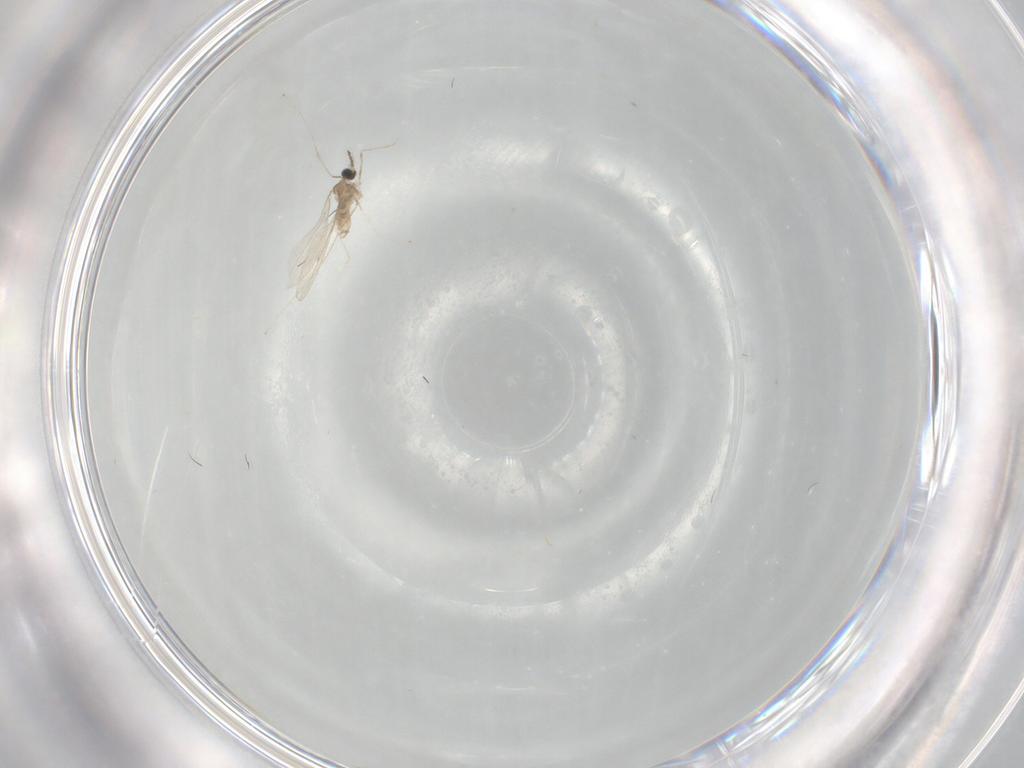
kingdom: Animalia
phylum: Arthropoda
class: Insecta
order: Diptera
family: Cecidomyiidae
